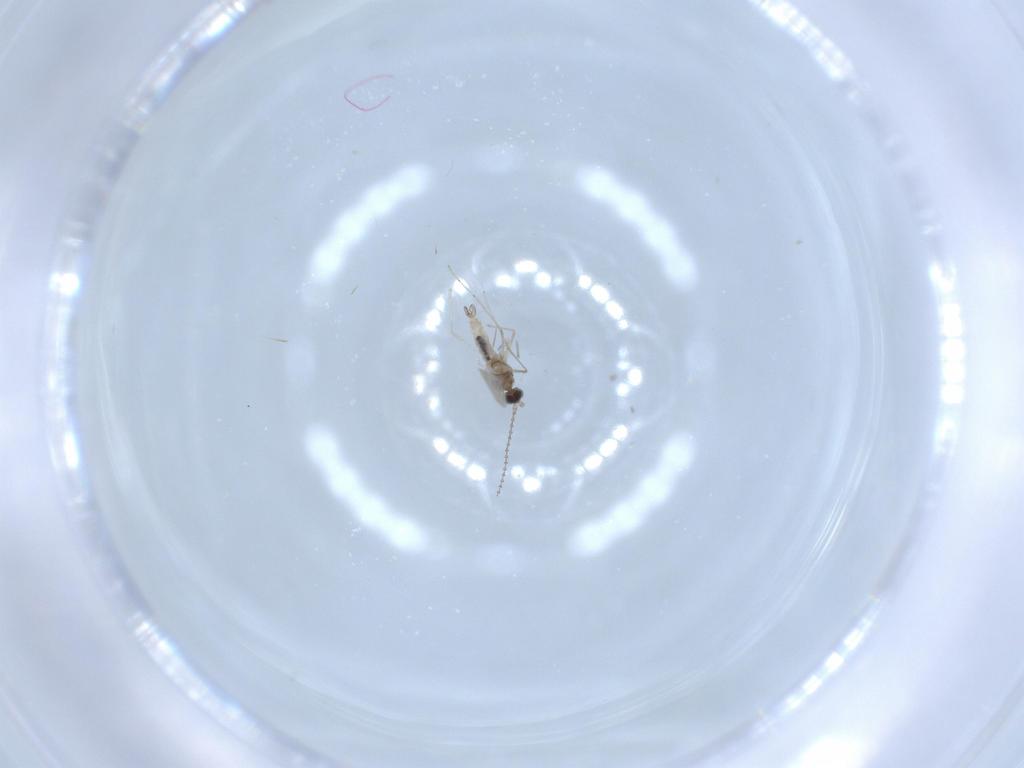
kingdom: Animalia
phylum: Arthropoda
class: Insecta
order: Diptera
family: Cecidomyiidae
